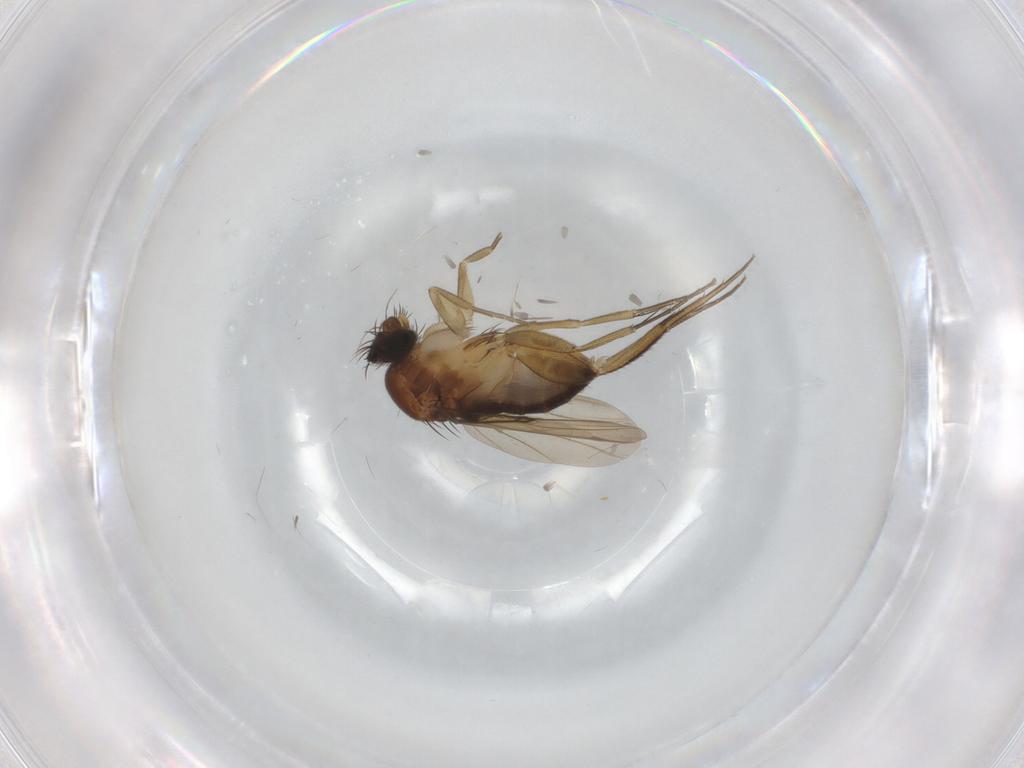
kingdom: Animalia
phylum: Arthropoda
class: Insecta
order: Diptera
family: Phoridae
